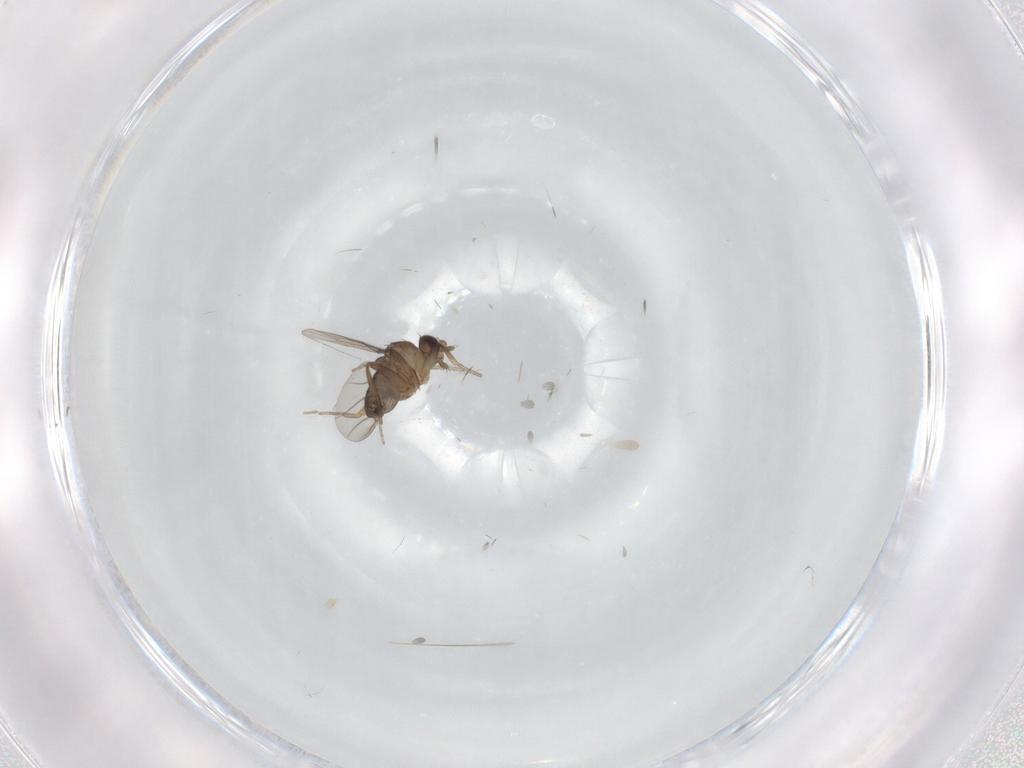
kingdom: Animalia
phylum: Arthropoda
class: Insecta
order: Diptera
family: Phoridae
